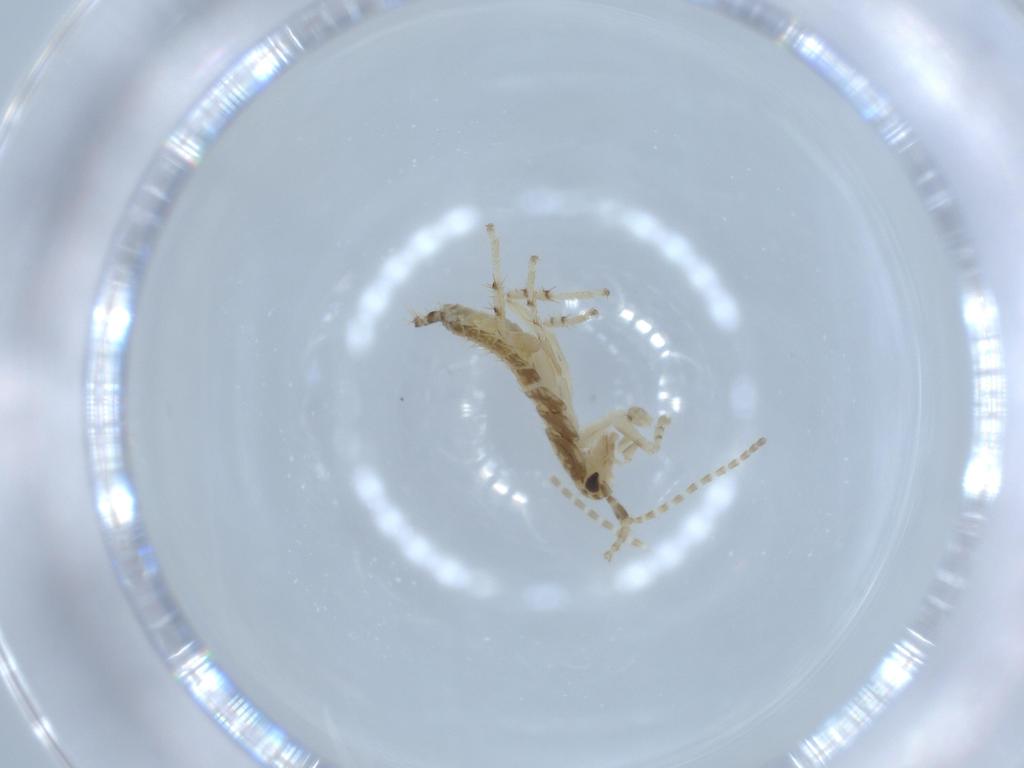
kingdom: Animalia
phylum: Arthropoda
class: Insecta
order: Blattodea
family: Ectobiidae
